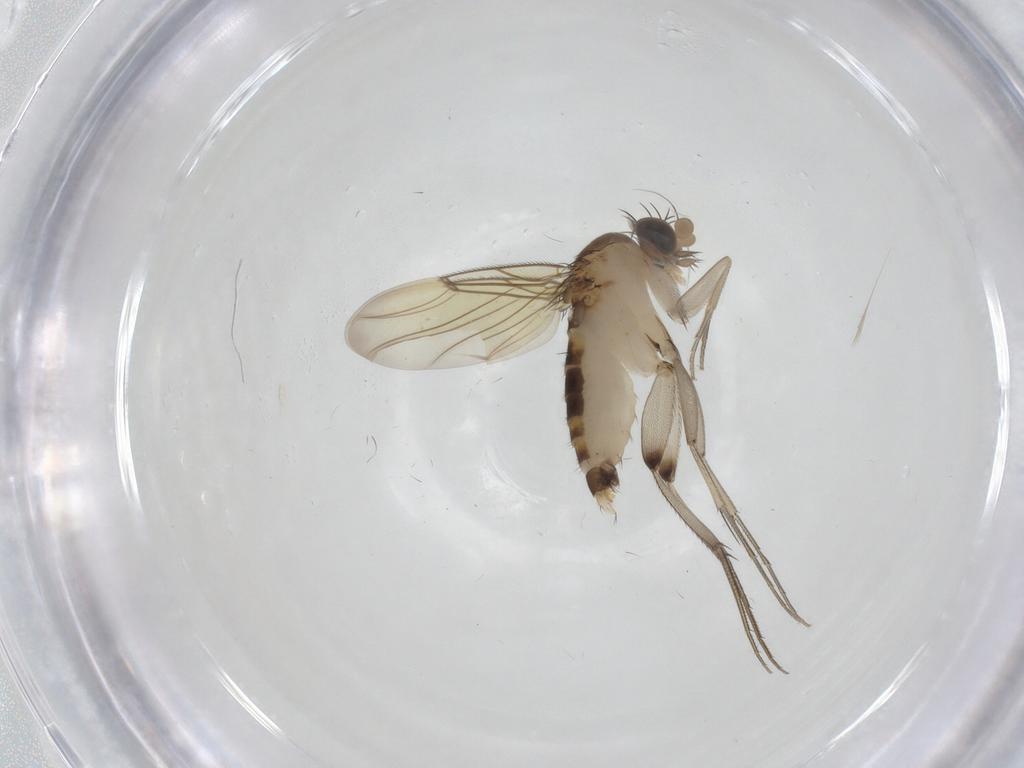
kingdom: Animalia
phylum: Arthropoda
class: Insecta
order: Diptera
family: Phoridae
